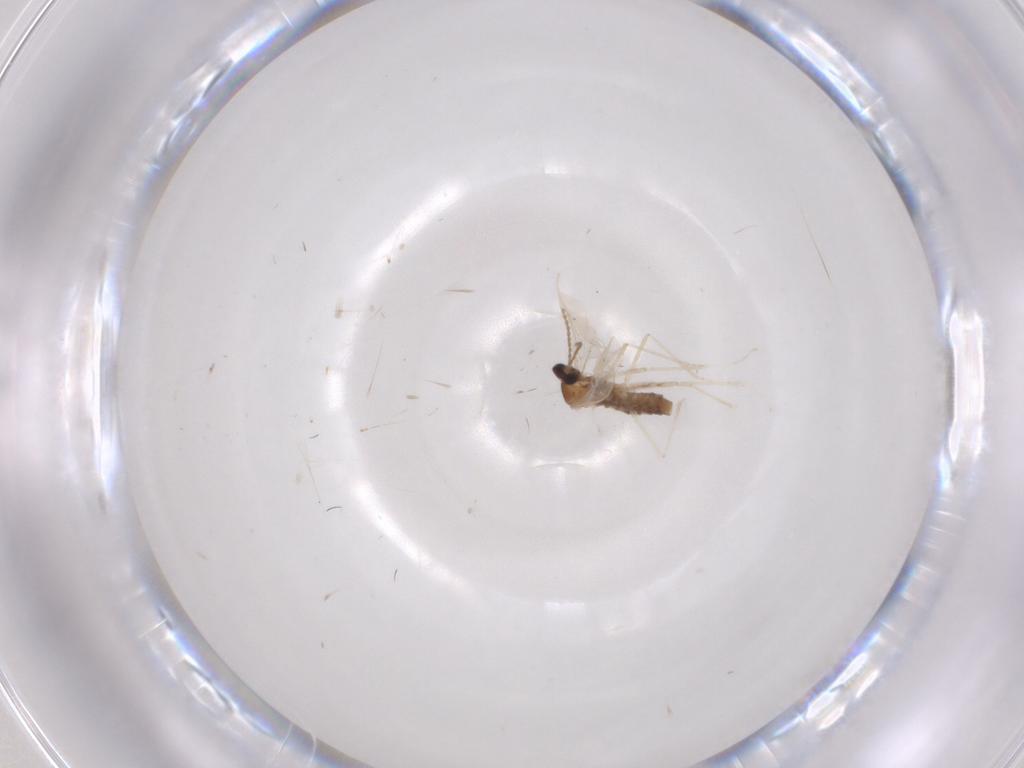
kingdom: Animalia
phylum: Arthropoda
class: Insecta
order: Diptera
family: Cecidomyiidae
